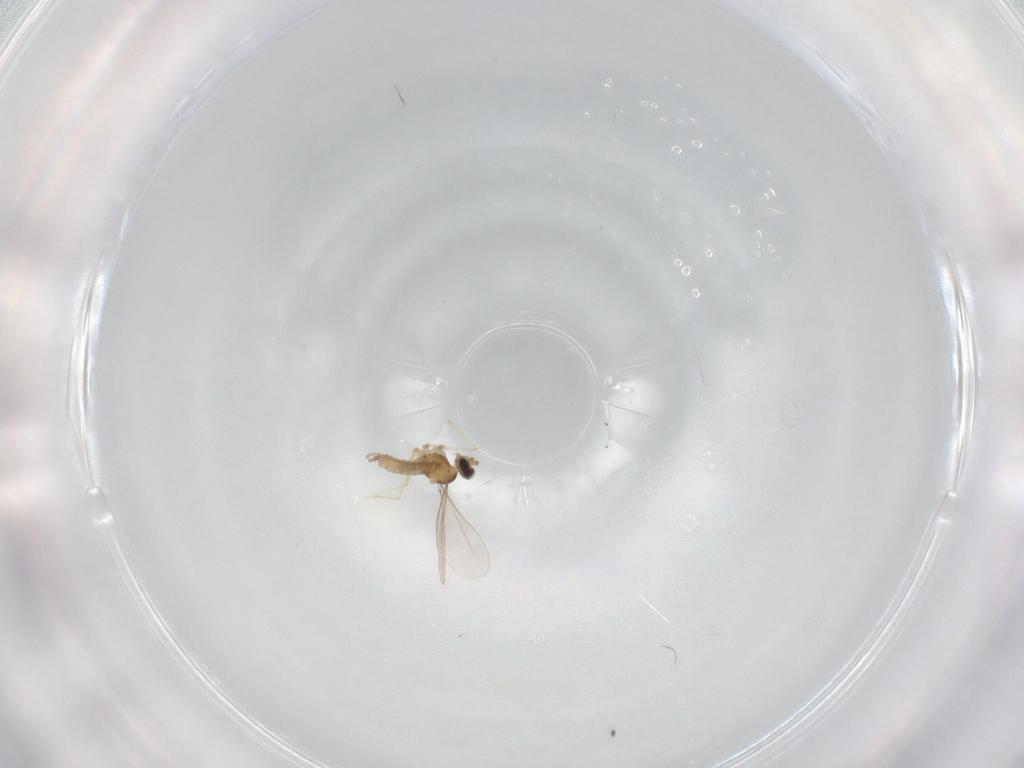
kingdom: Animalia
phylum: Arthropoda
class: Insecta
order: Diptera
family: Cecidomyiidae
